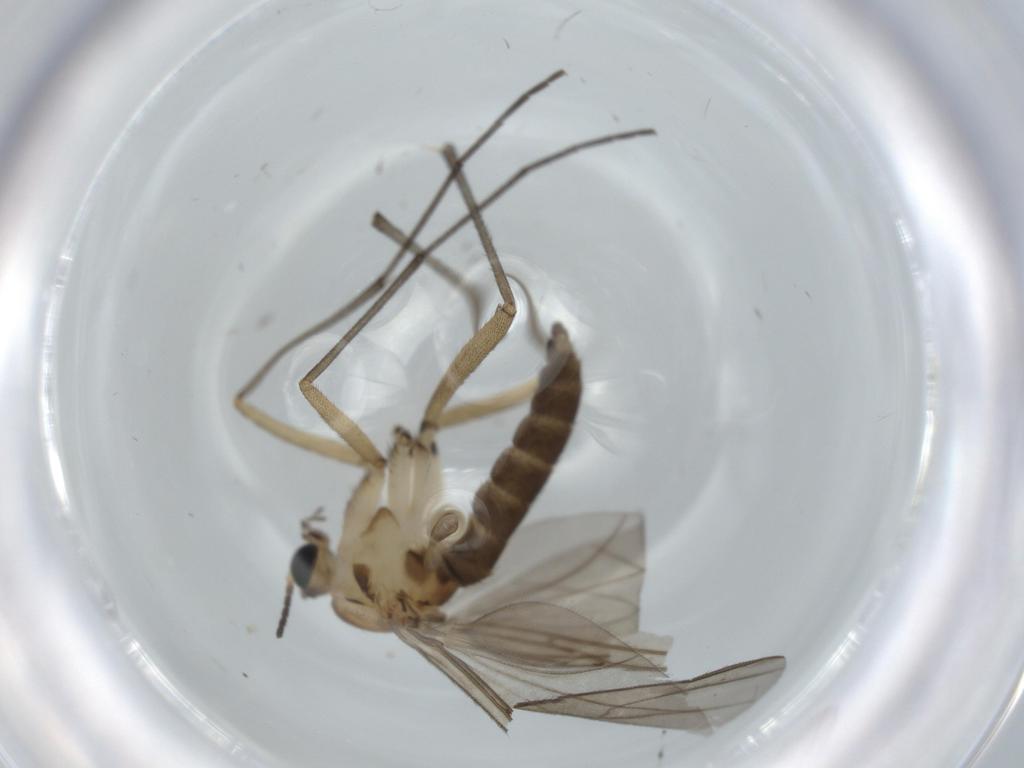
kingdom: Animalia
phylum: Arthropoda
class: Insecta
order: Diptera
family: Sciaridae
